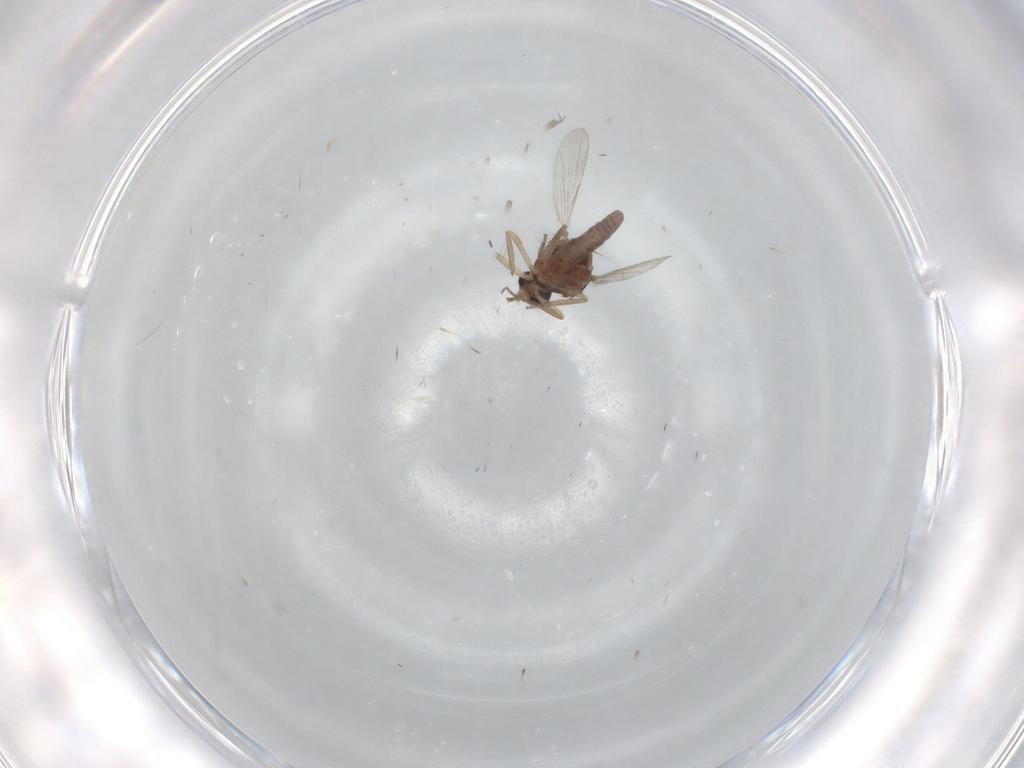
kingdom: Animalia
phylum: Arthropoda
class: Insecta
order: Diptera
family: Ceratopogonidae
